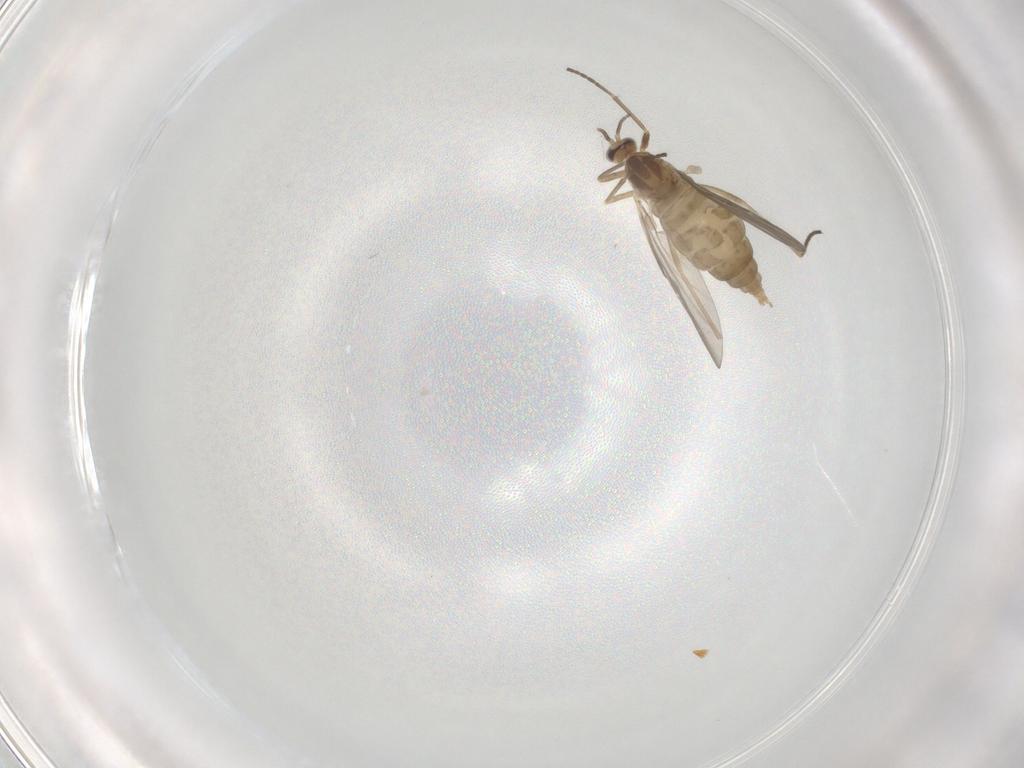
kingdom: Animalia
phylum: Arthropoda
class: Insecta
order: Diptera
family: Cecidomyiidae
